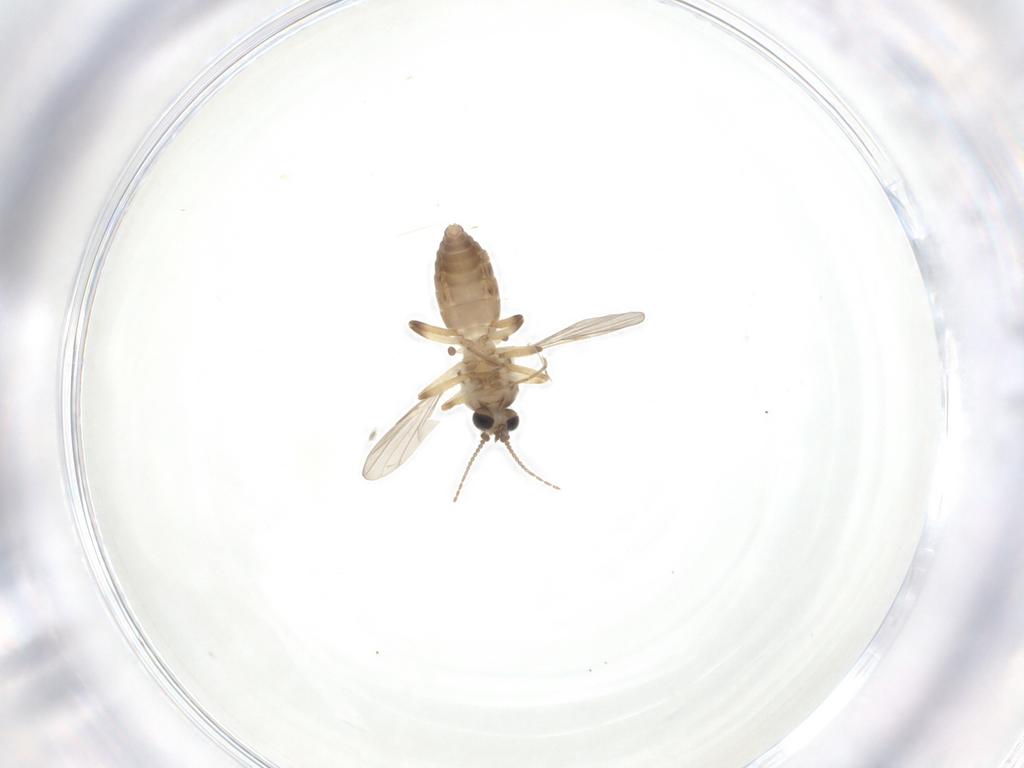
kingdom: Animalia
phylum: Arthropoda
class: Insecta
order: Diptera
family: Ceratopogonidae
